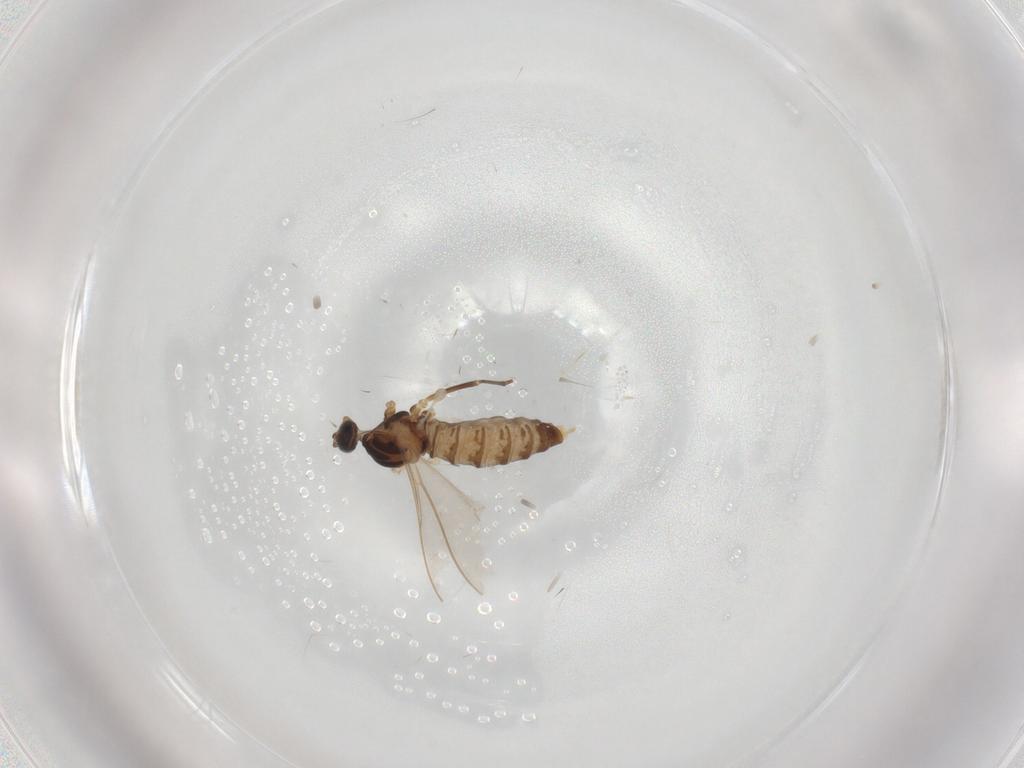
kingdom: Animalia
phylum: Arthropoda
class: Insecta
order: Diptera
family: Cecidomyiidae
